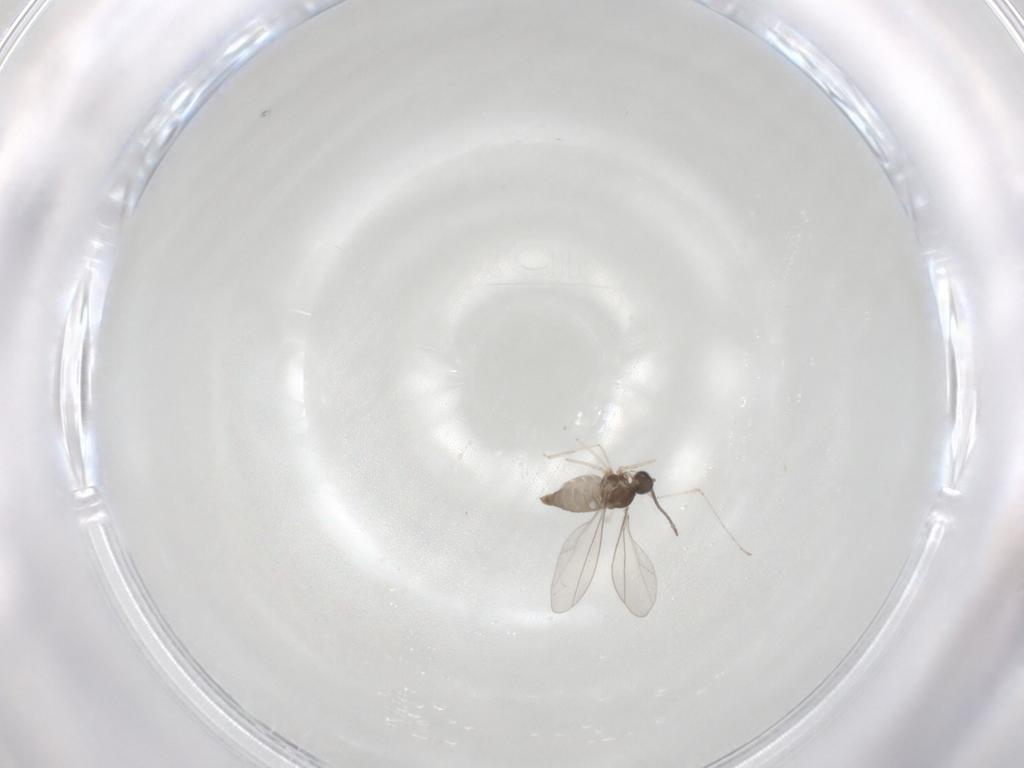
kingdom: Animalia
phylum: Arthropoda
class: Insecta
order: Diptera
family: Cecidomyiidae
